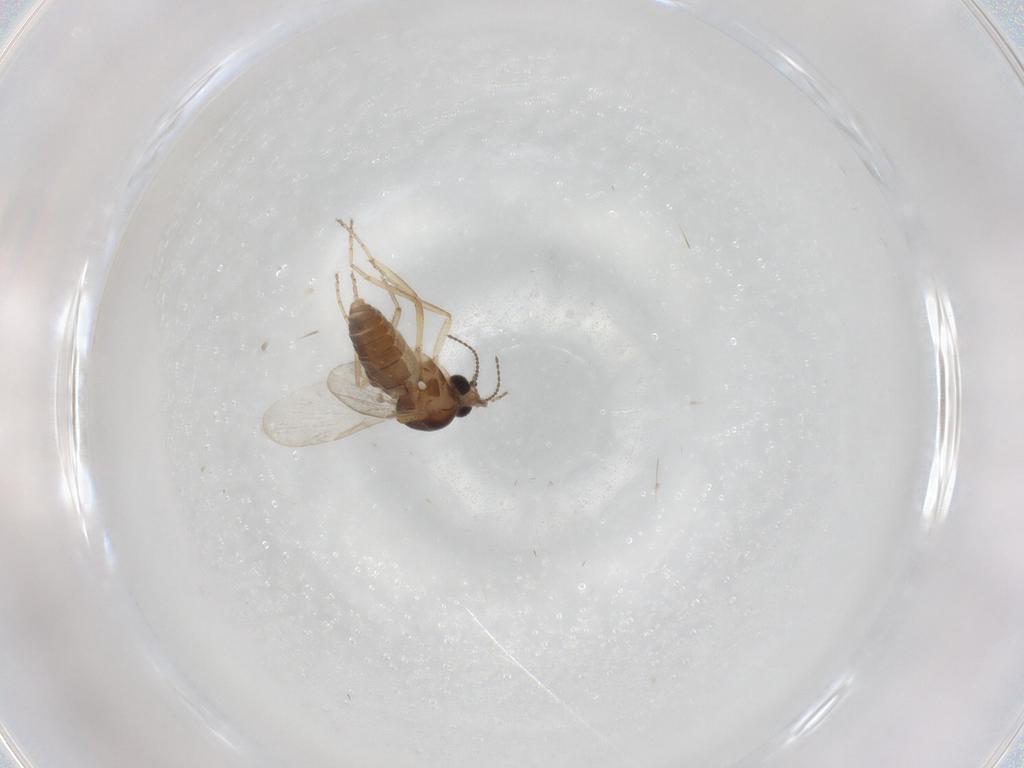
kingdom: Animalia
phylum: Arthropoda
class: Insecta
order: Diptera
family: Ceratopogonidae
